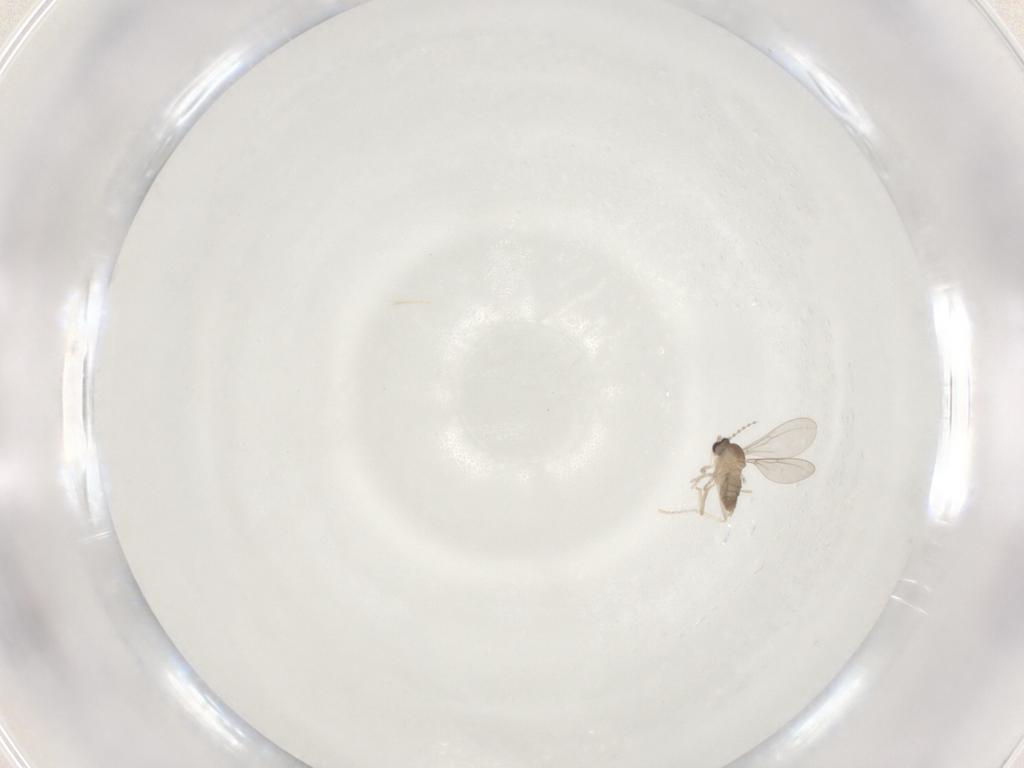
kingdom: Animalia
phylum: Arthropoda
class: Insecta
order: Diptera
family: Cecidomyiidae
